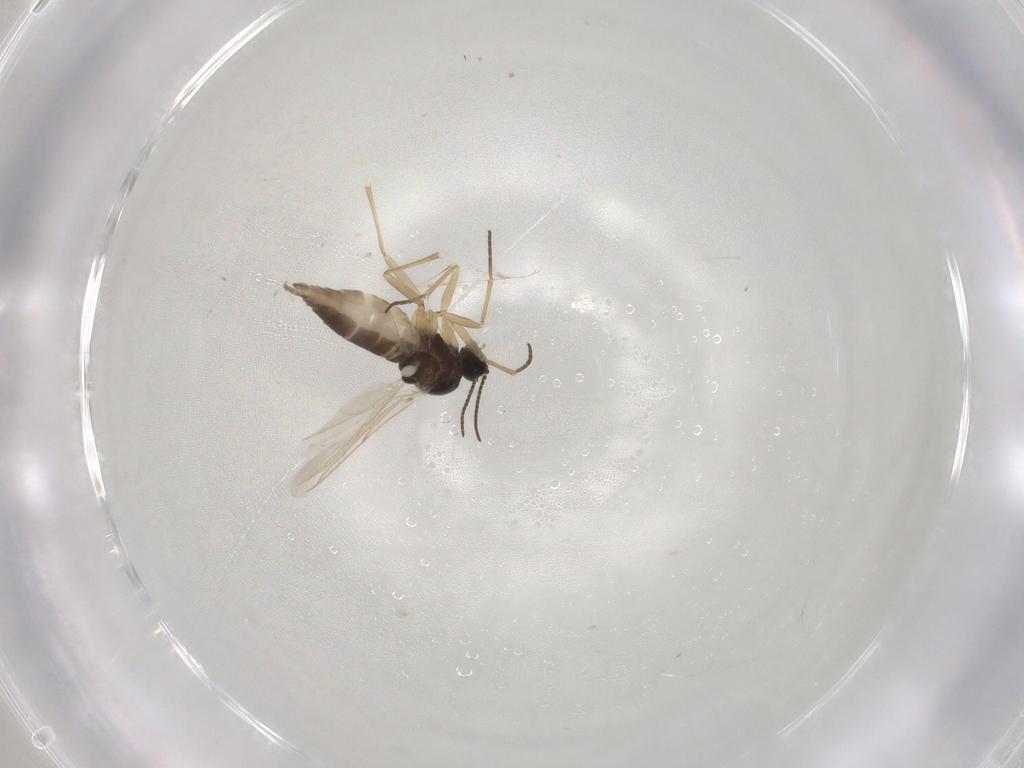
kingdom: Animalia
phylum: Arthropoda
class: Insecta
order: Diptera
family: Sciaridae
